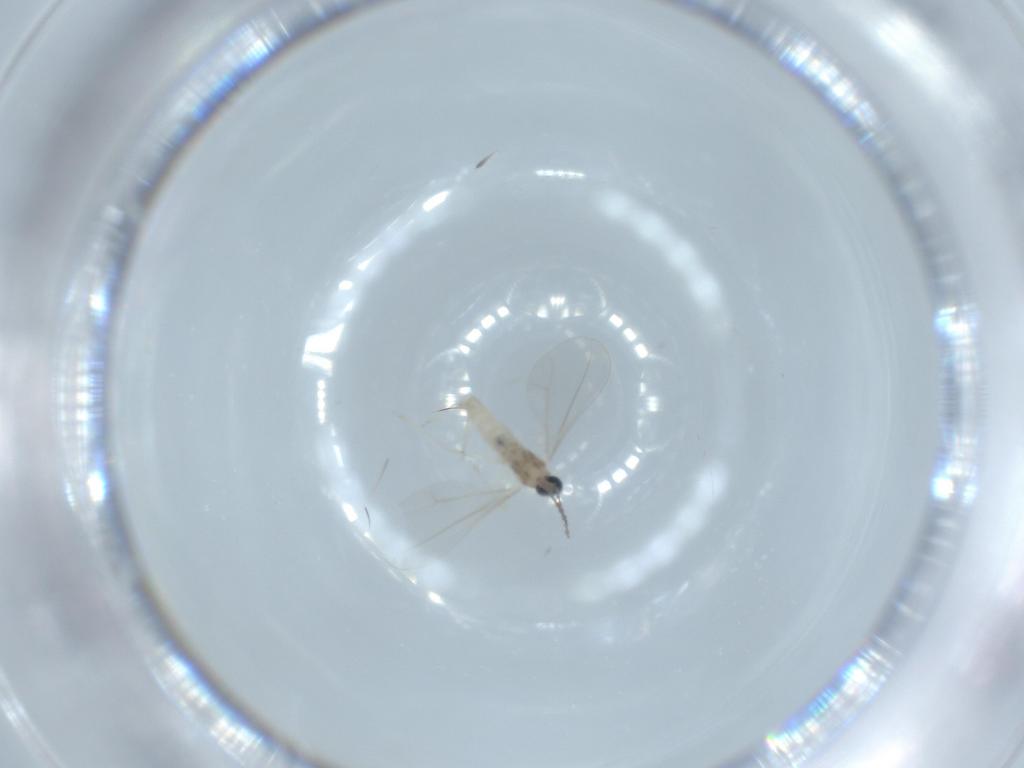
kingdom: Animalia
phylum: Arthropoda
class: Insecta
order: Diptera
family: Cecidomyiidae
